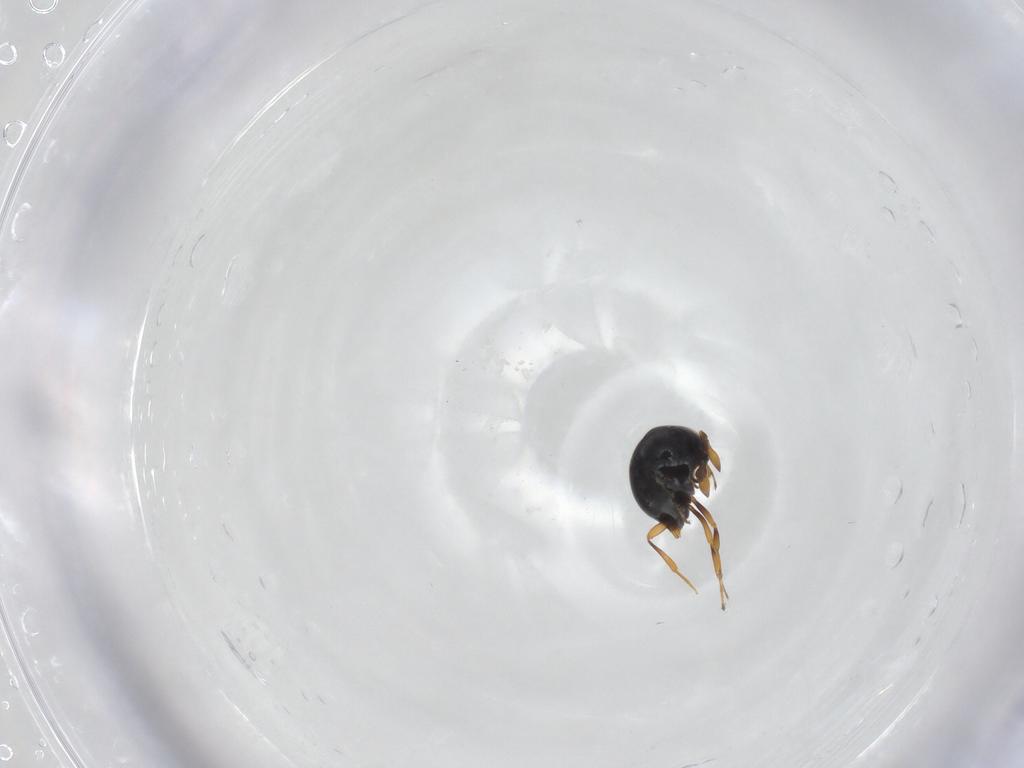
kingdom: Animalia
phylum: Arthropoda
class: Insecta
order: Hymenoptera
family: Scelionidae
